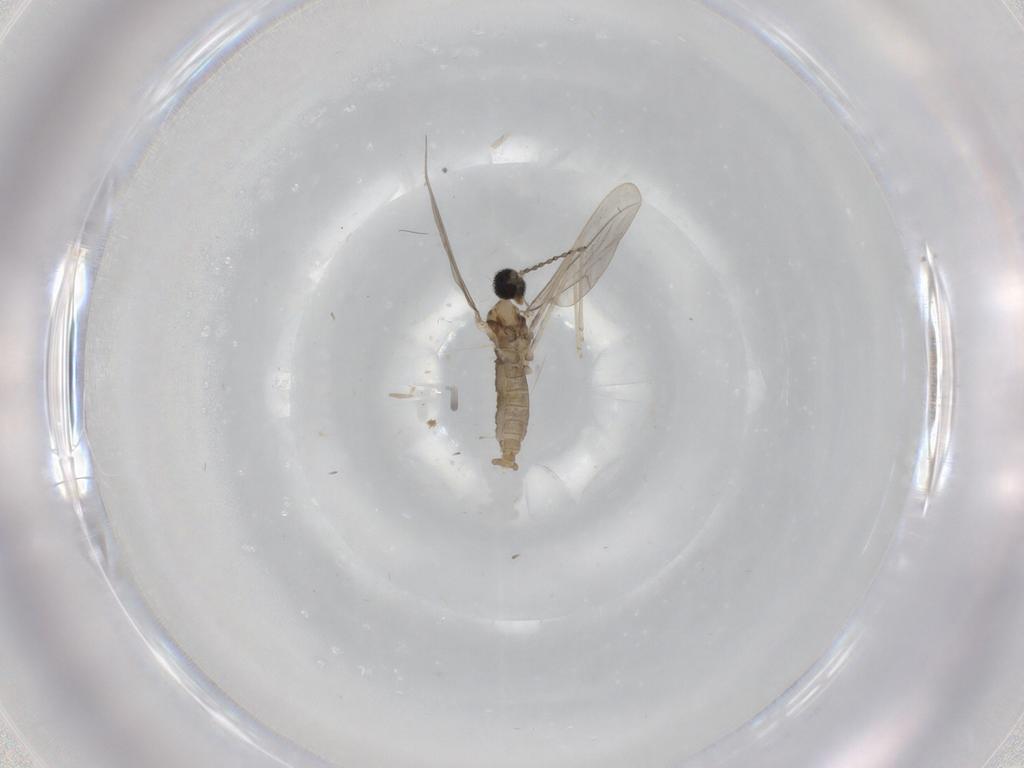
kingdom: Animalia
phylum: Arthropoda
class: Insecta
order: Diptera
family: Cecidomyiidae
